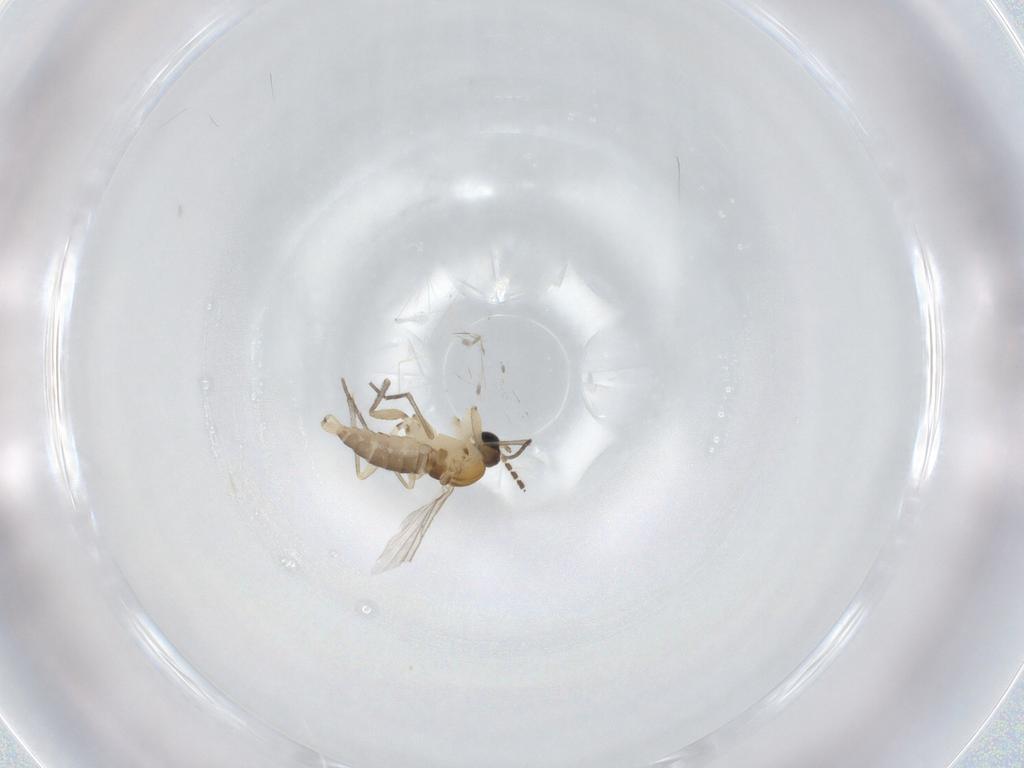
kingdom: Animalia
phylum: Arthropoda
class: Insecta
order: Diptera
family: Sciaridae
